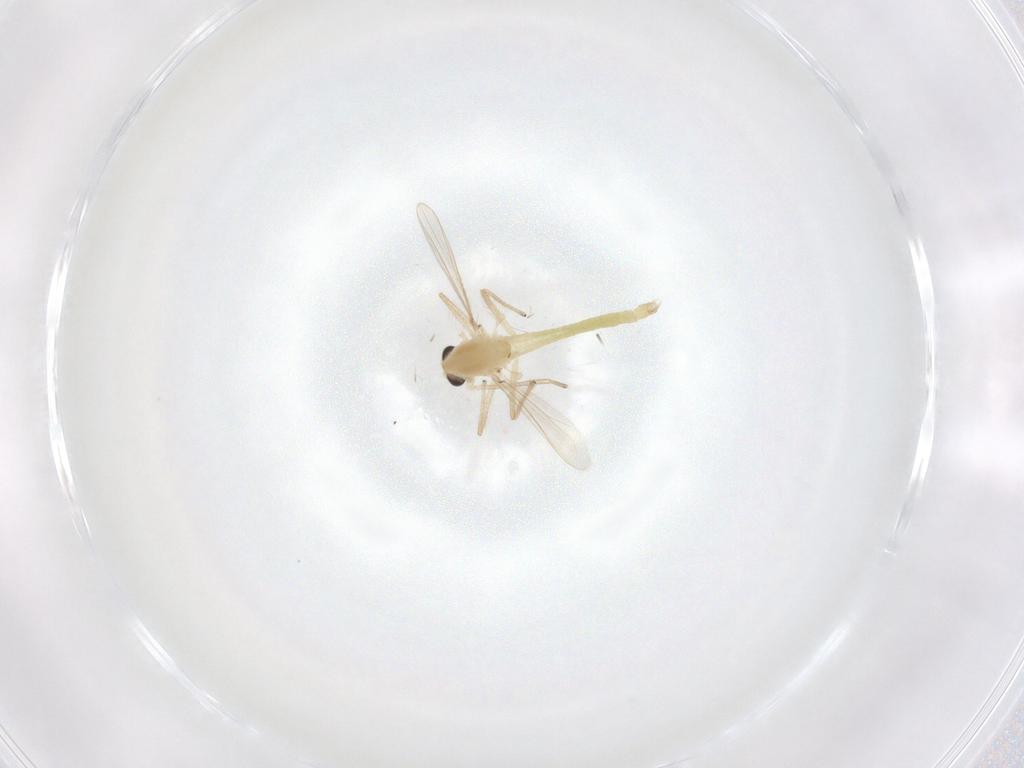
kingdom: Animalia
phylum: Arthropoda
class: Insecta
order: Diptera
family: Chironomidae
